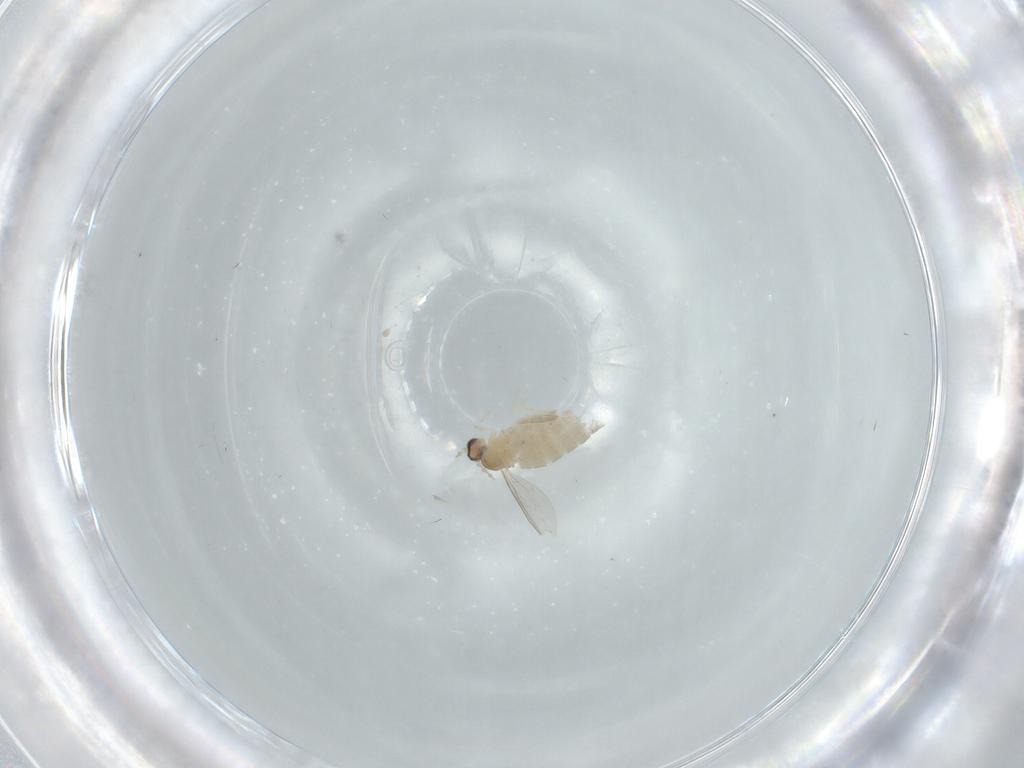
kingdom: Animalia
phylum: Arthropoda
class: Insecta
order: Diptera
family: Cecidomyiidae
